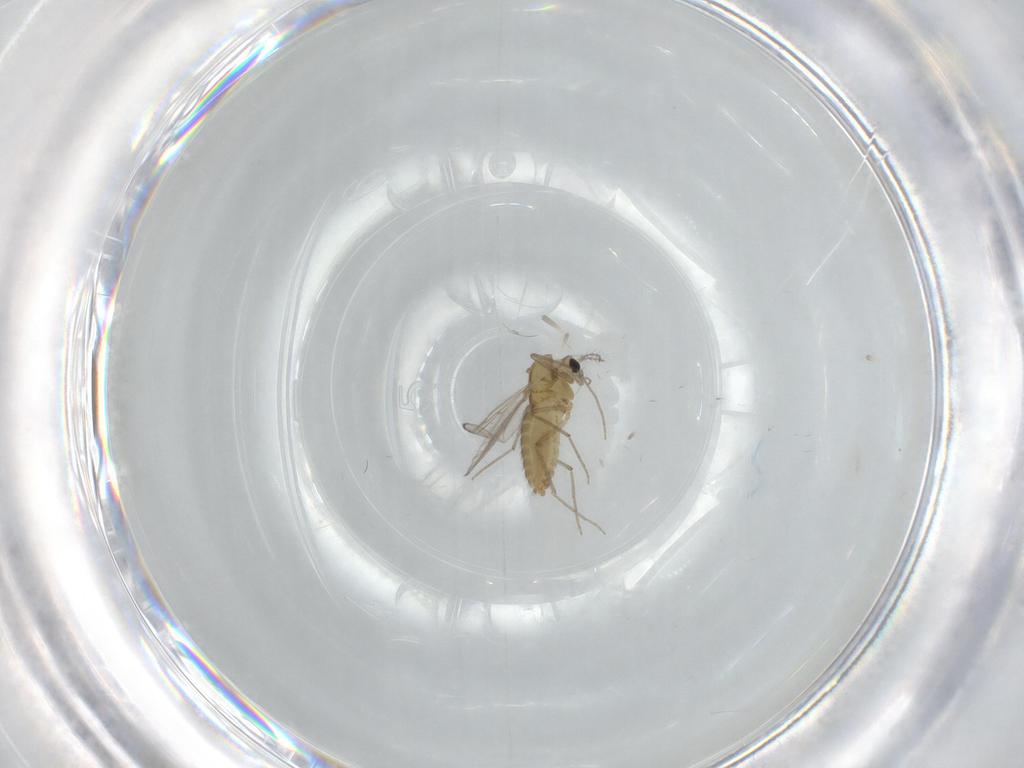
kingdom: Animalia
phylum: Arthropoda
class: Insecta
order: Diptera
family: Chironomidae
